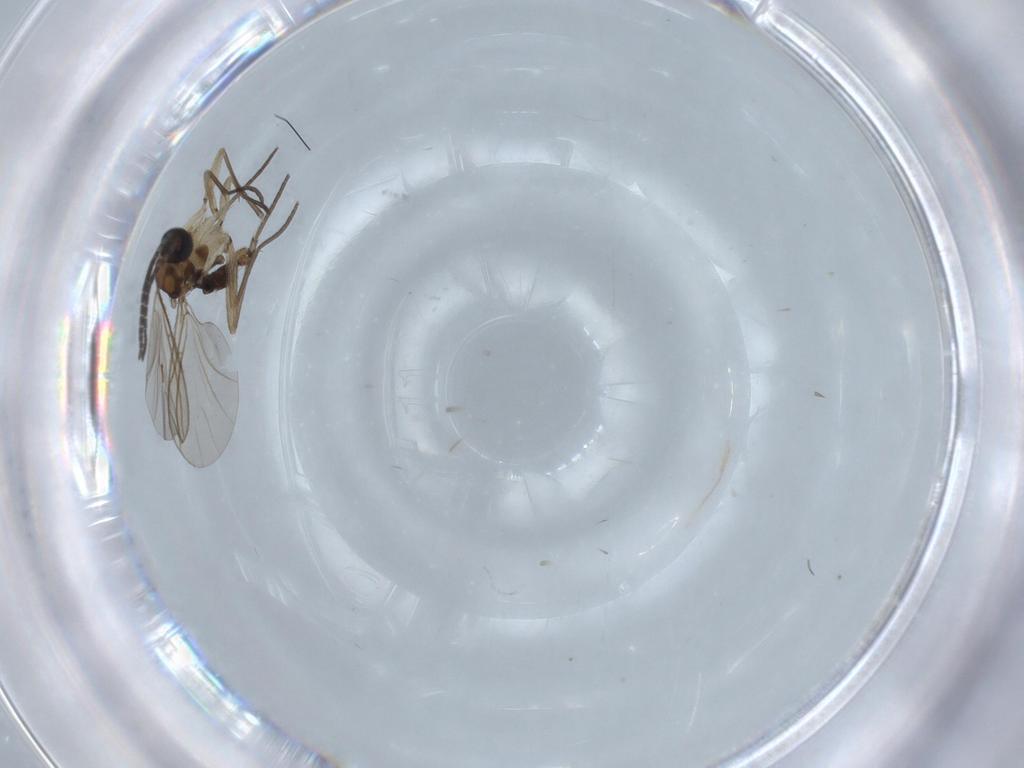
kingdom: Animalia
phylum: Arthropoda
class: Insecta
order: Diptera
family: Sciaridae
